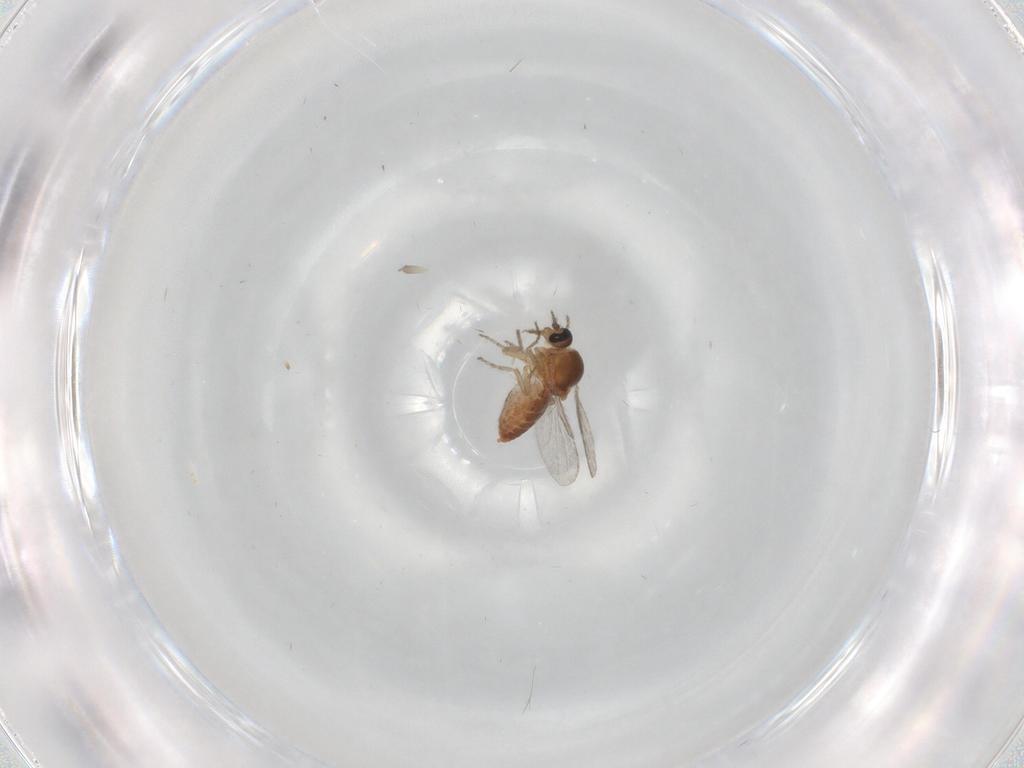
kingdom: Animalia
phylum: Arthropoda
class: Insecta
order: Diptera
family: Ceratopogonidae
